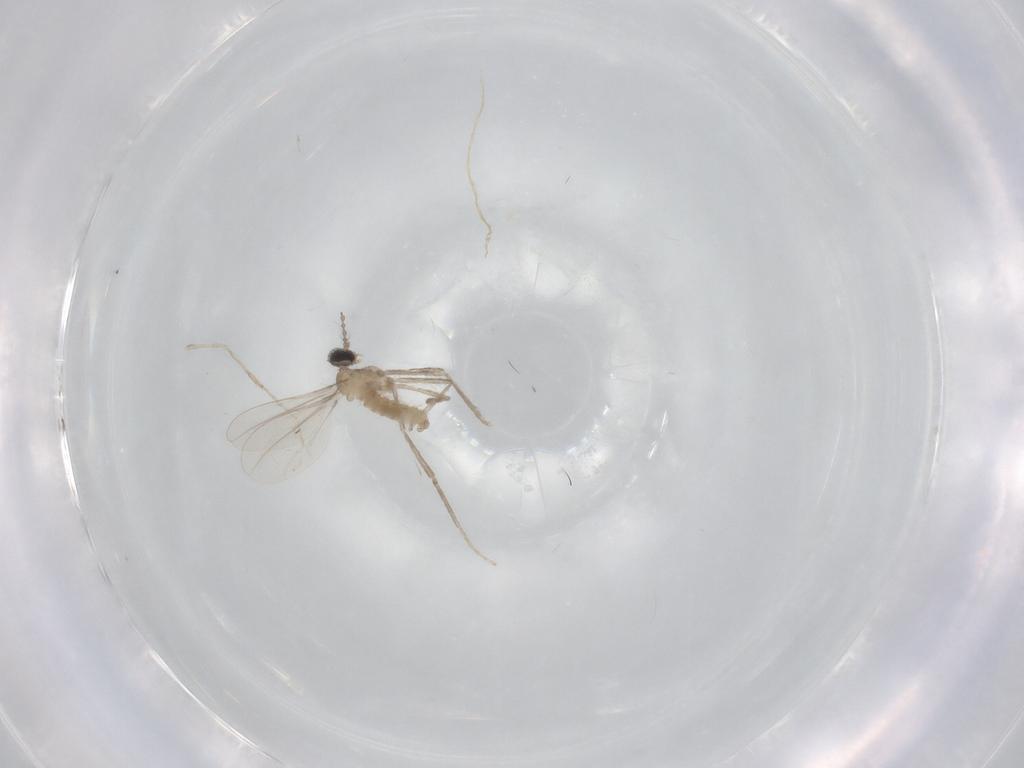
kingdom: Animalia
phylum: Arthropoda
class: Insecta
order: Diptera
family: Cecidomyiidae
